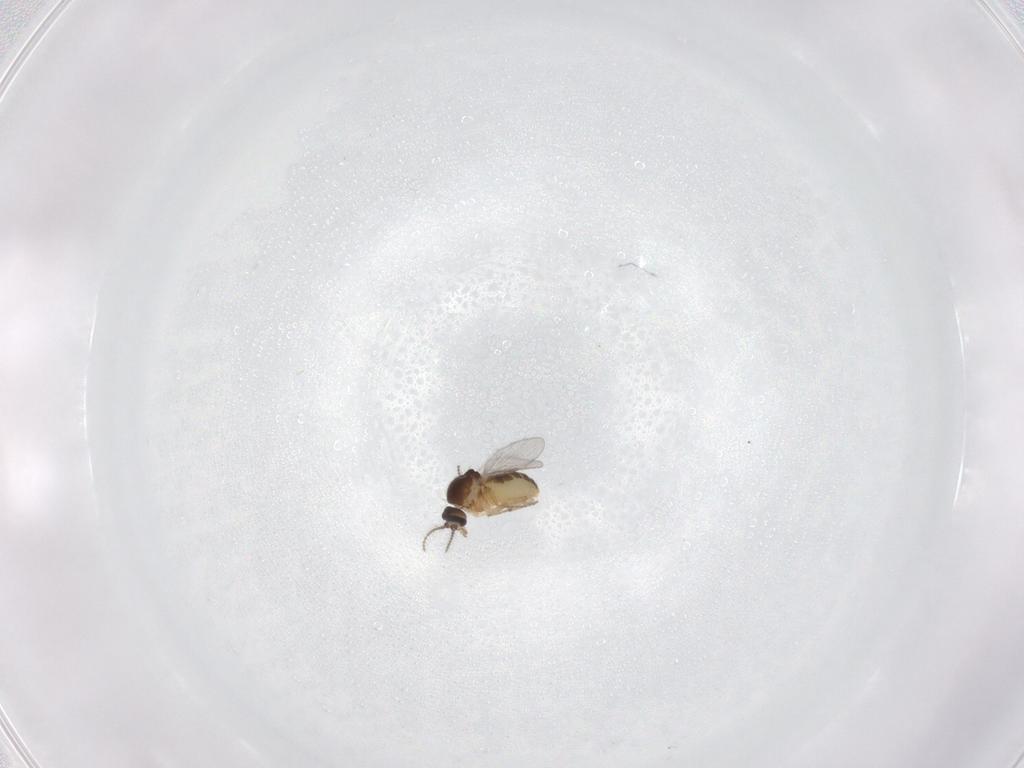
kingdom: Animalia
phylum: Arthropoda
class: Insecta
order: Diptera
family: Ceratopogonidae
